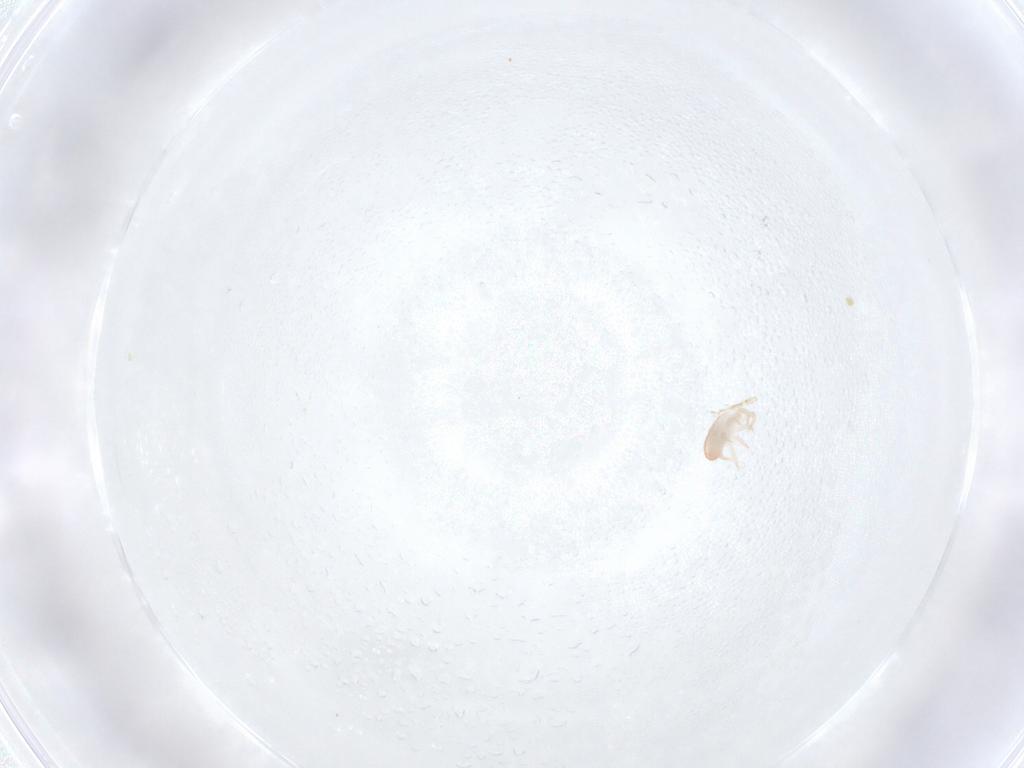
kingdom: Animalia
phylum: Arthropoda
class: Arachnida
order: Mesostigmata
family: Zerconidae
